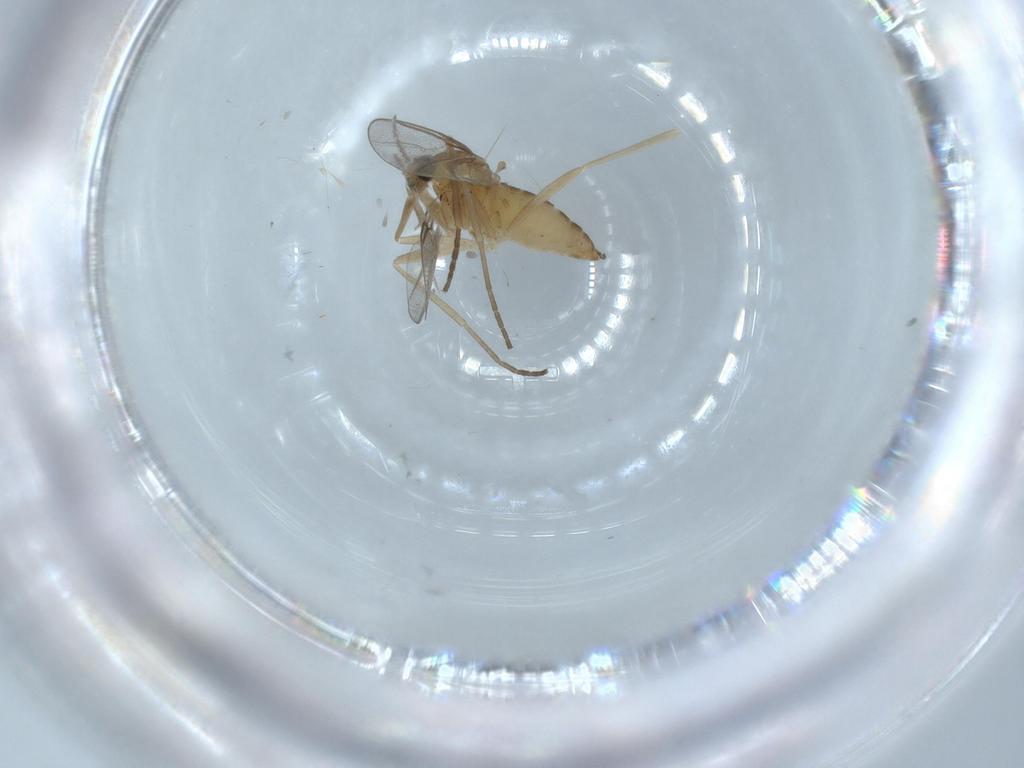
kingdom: Animalia
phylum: Arthropoda
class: Insecta
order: Diptera
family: Cecidomyiidae
